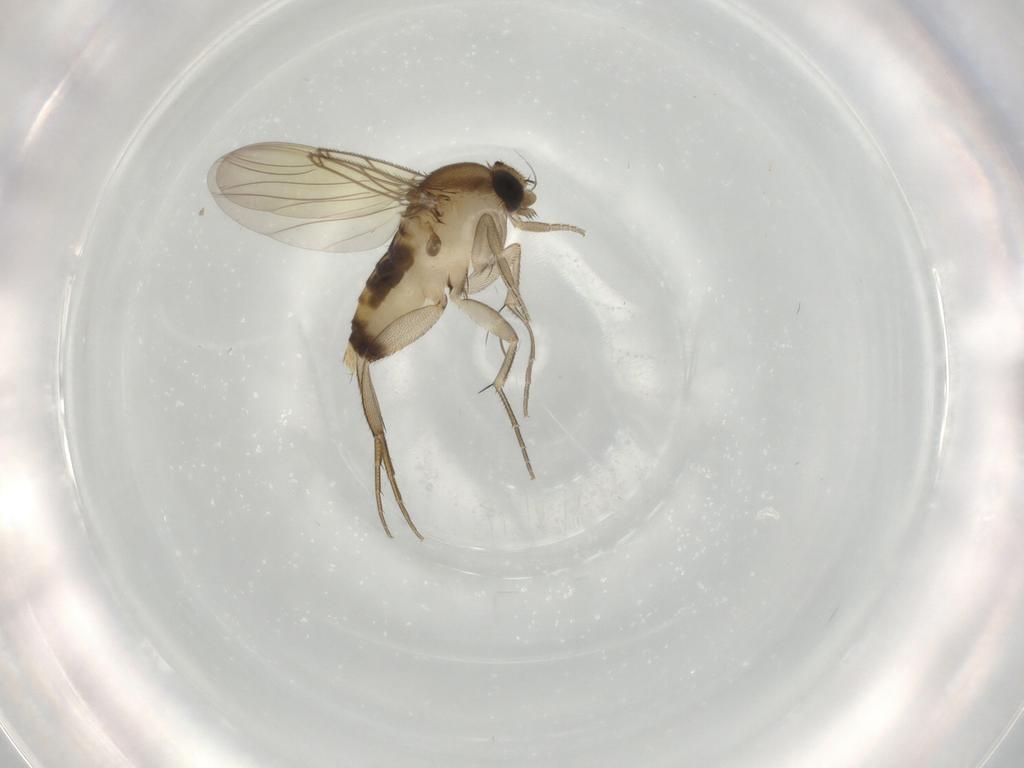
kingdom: Animalia
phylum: Arthropoda
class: Insecta
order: Diptera
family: Phoridae
